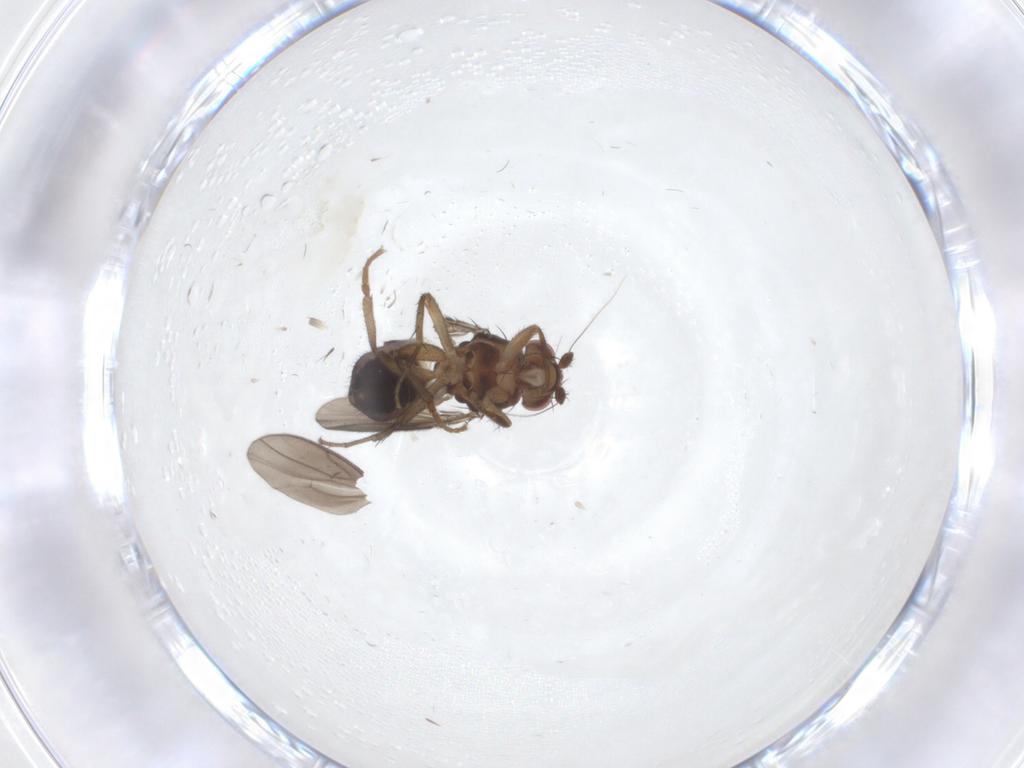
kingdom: Animalia
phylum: Arthropoda
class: Insecta
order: Diptera
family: Sphaeroceridae
